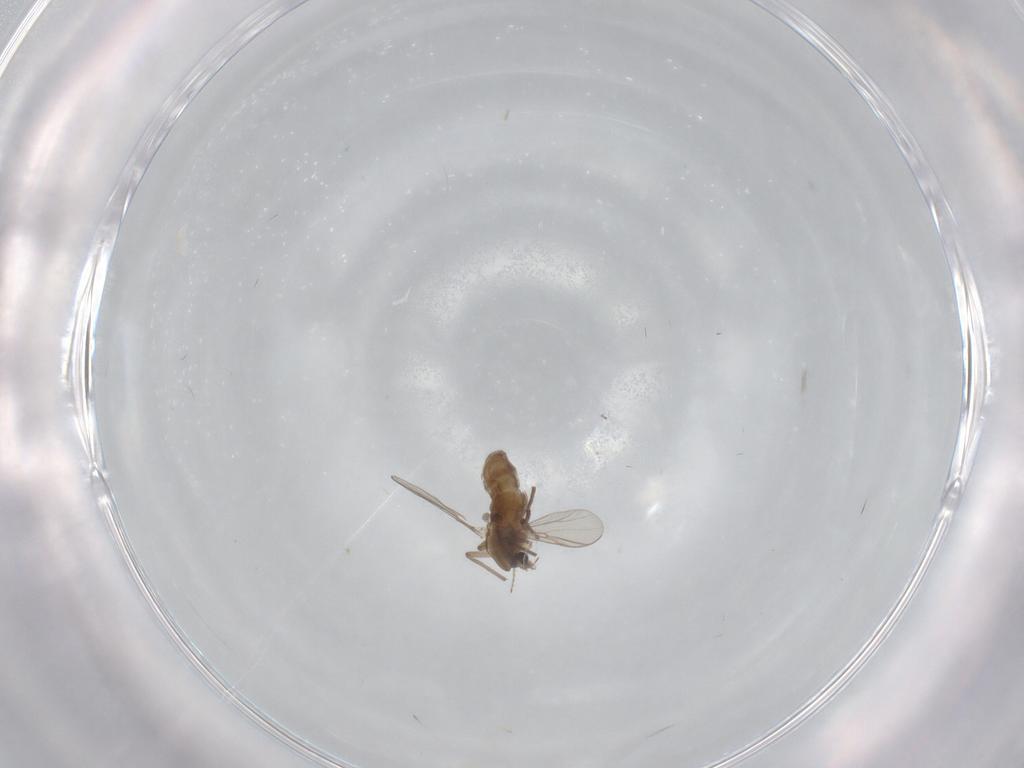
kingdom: Animalia
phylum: Arthropoda
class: Insecta
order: Diptera
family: Chironomidae
